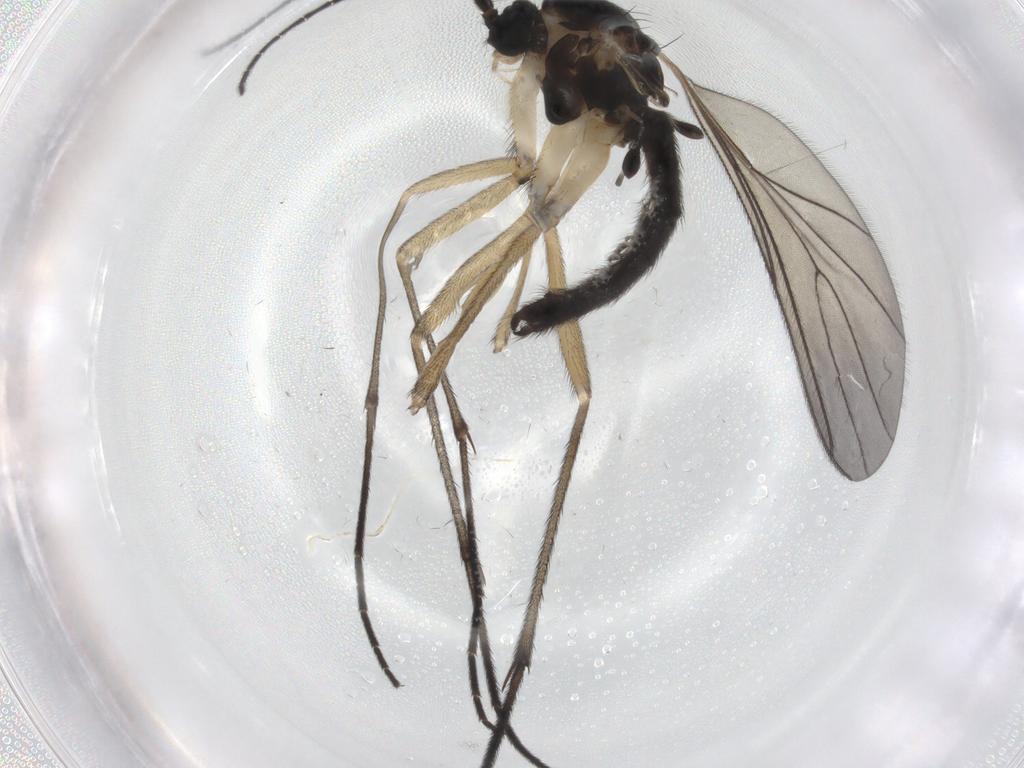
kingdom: Animalia
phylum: Arthropoda
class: Insecta
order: Diptera
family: Sciaridae
